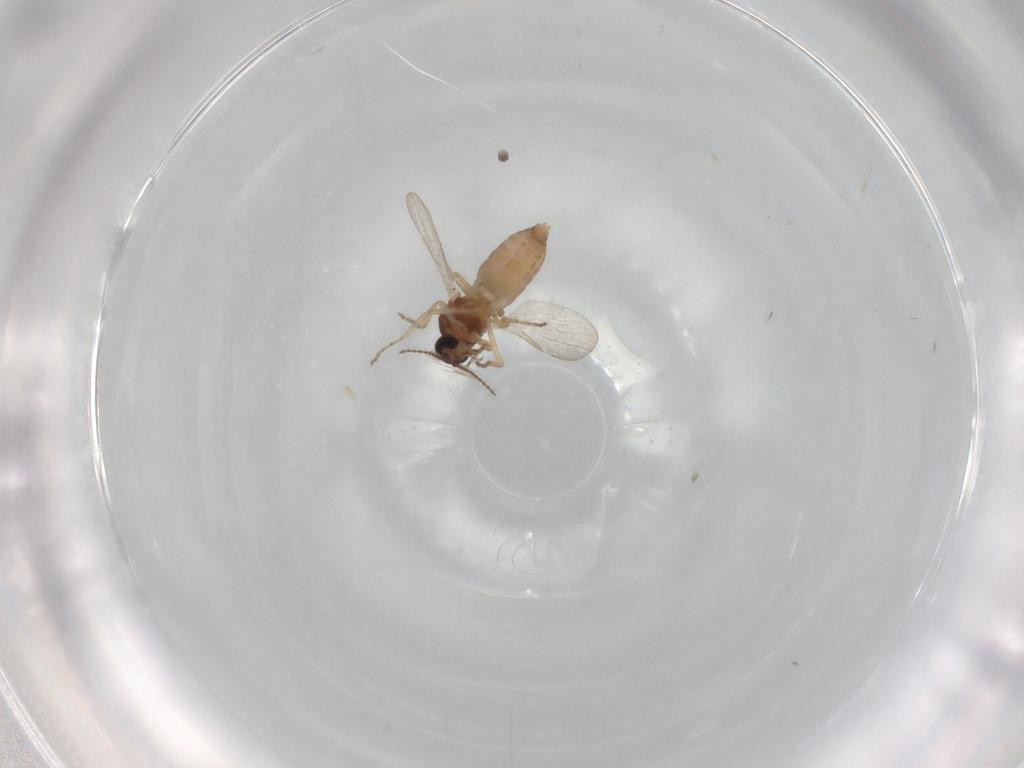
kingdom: Animalia
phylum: Arthropoda
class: Insecta
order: Diptera
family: Ceratopogonidae
